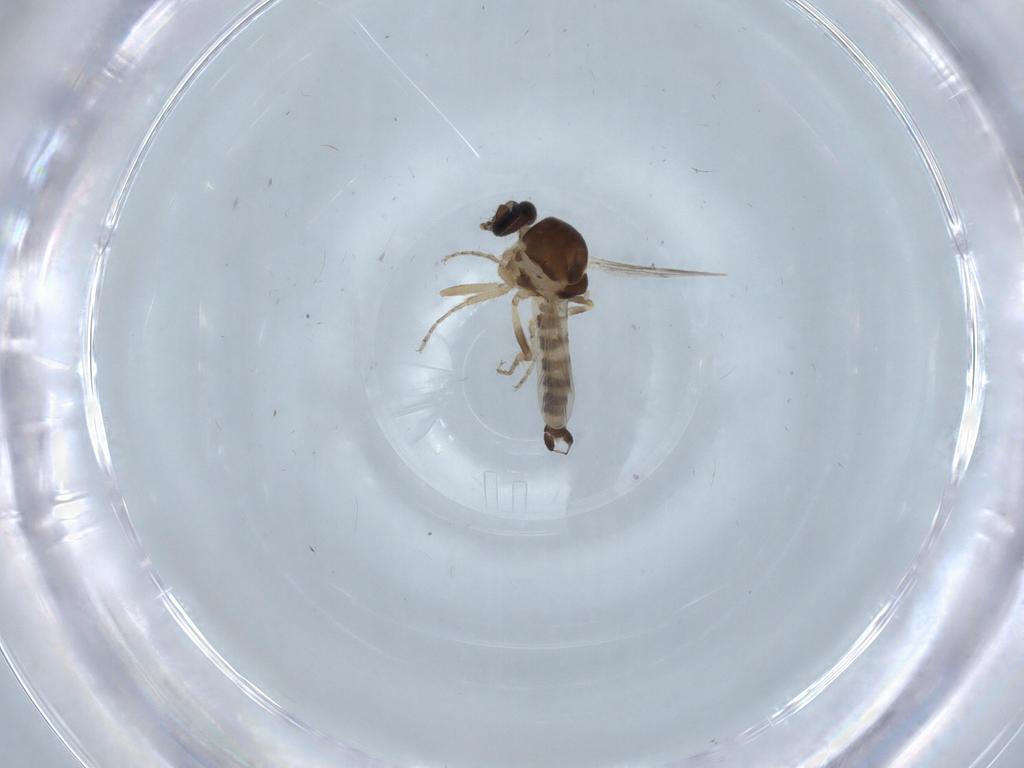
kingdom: Animalia
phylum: Arthropoda
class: Insecta
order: Diptera
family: Ceratopogonidae
